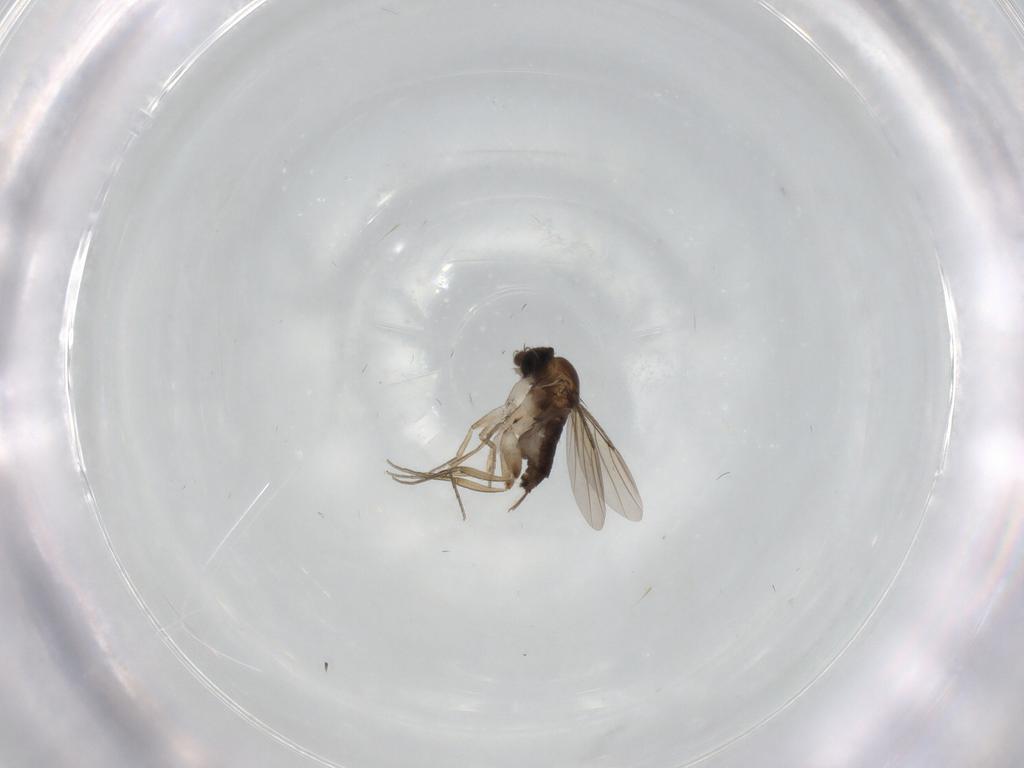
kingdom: Animalia
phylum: Arthropoda
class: Insecta
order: Diptera
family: Phoridae
